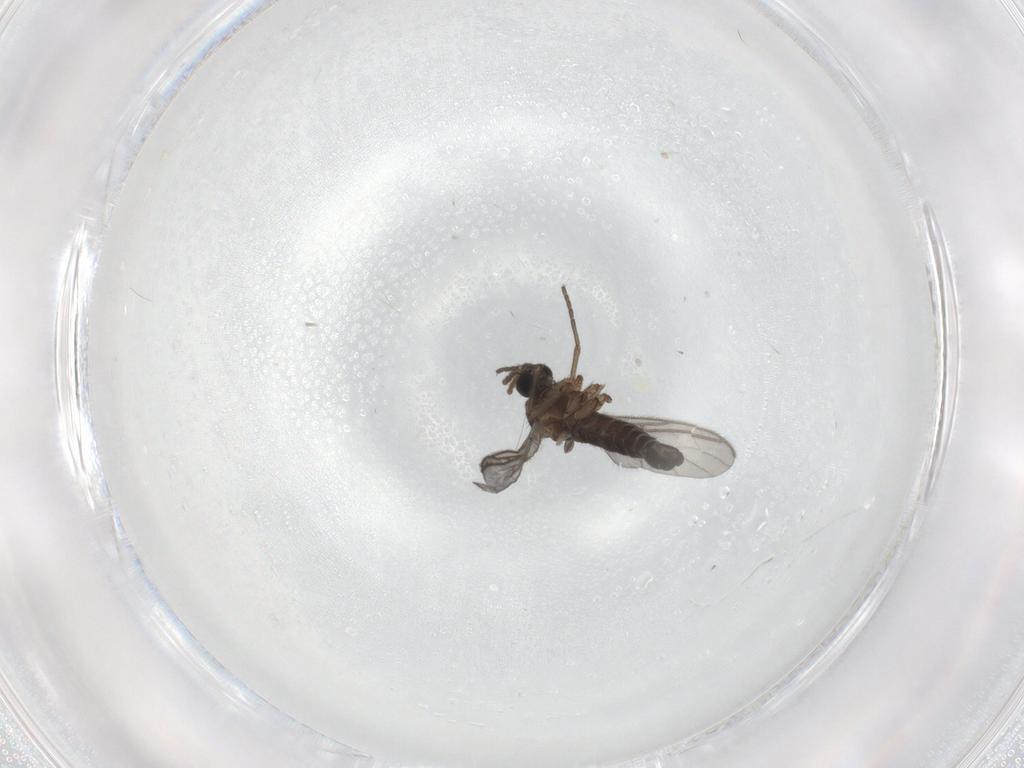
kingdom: Animalia
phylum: Arthropoda
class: Insecta
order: Diptera
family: Sciaridae
